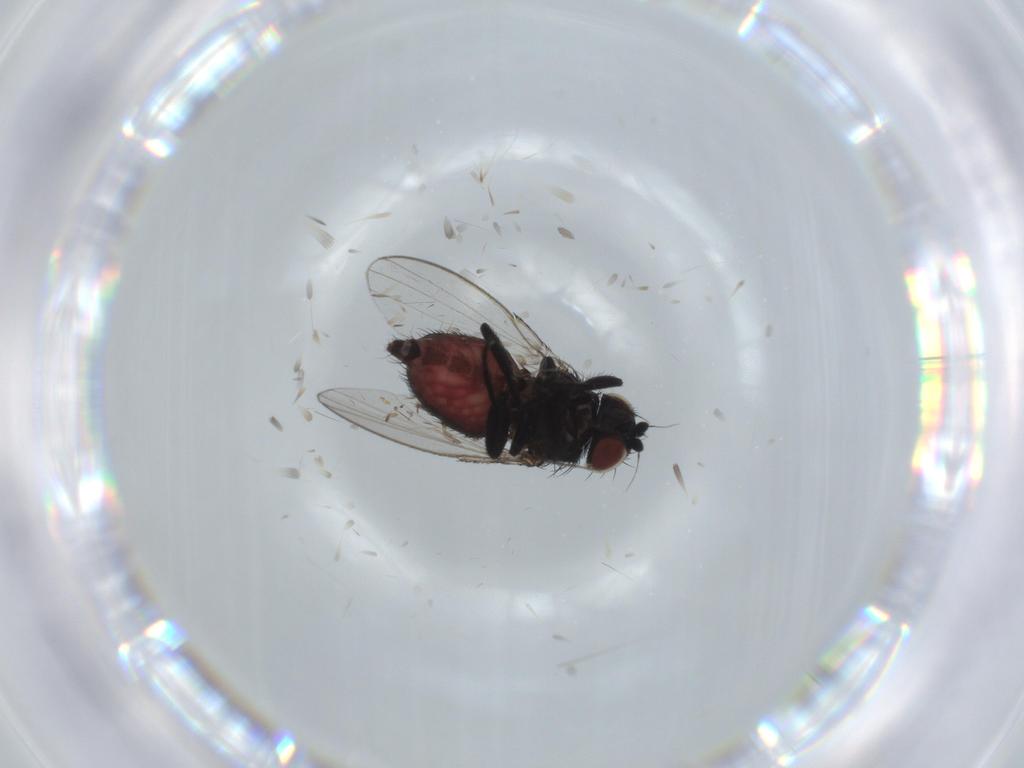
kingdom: Animalia
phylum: Arthropoda
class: Insecta
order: Diptera
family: Milichiidae
